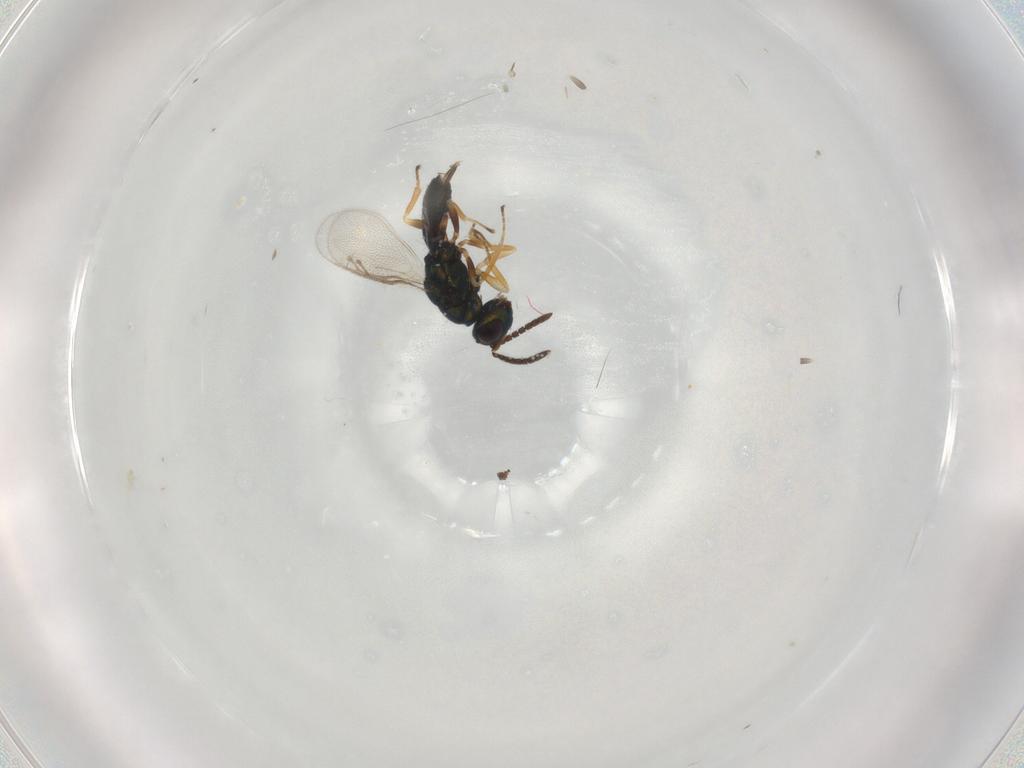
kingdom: Animalia
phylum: Arthropoda
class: Insecta
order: Hymenoptera
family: Pteromalidae
